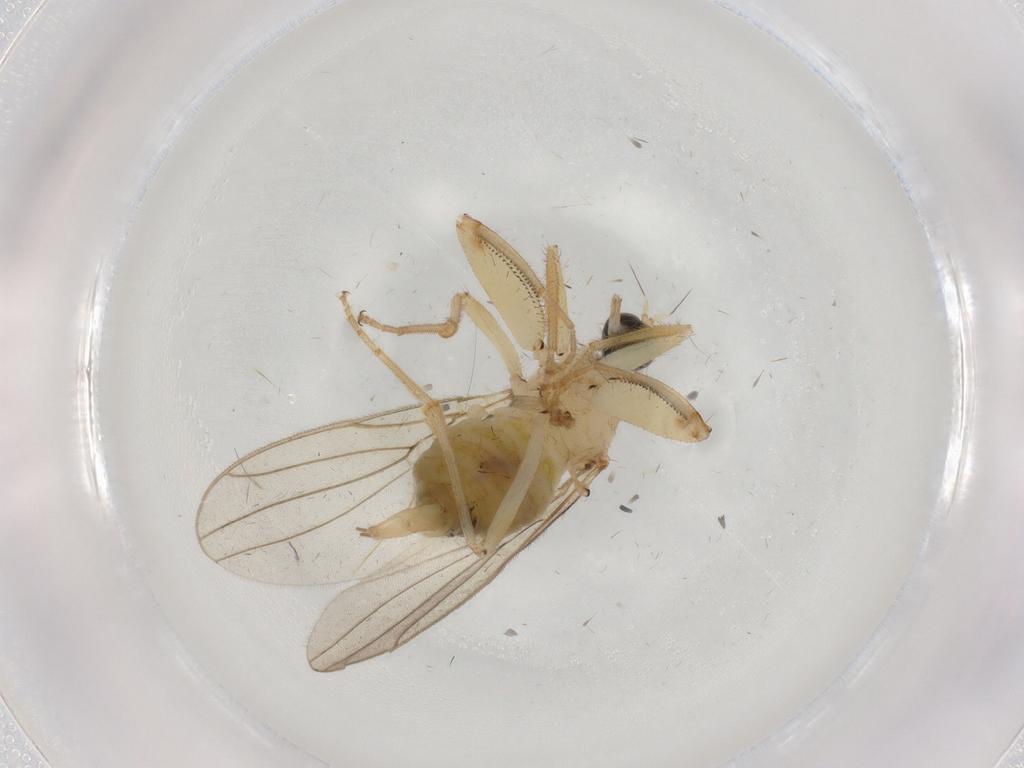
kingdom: Animalia
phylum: Arthropoda
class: Insecta
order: Diptera
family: Hybotidae
